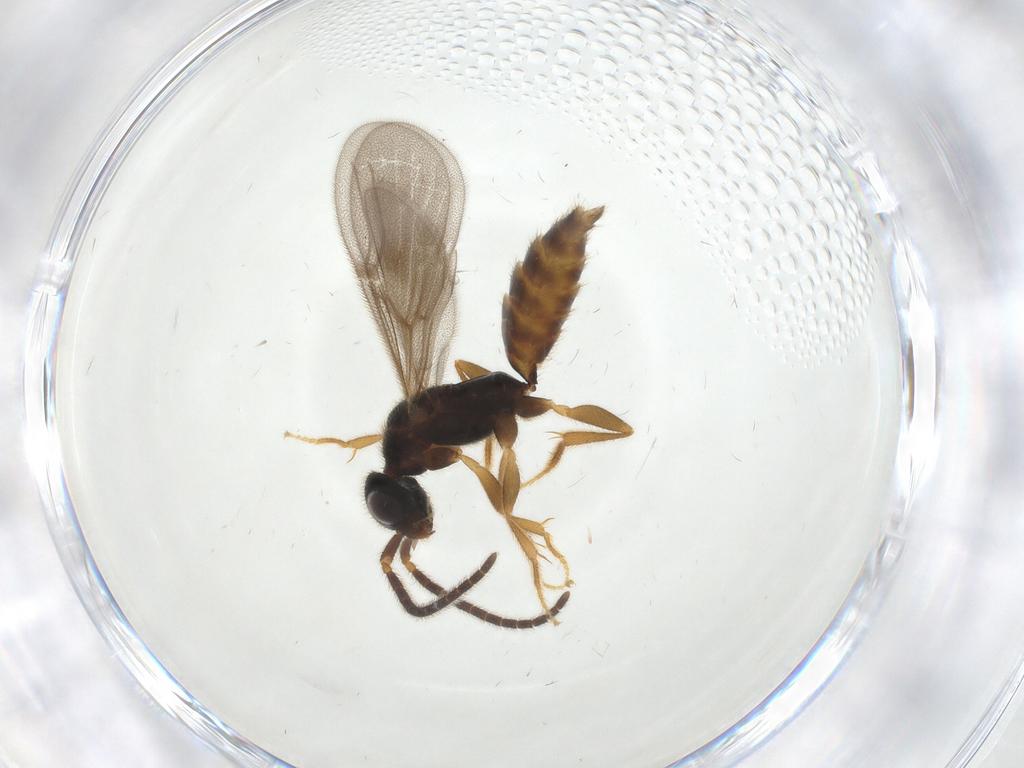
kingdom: Animalia
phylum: Arthropoda
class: Insecta
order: Hymenoptera
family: Bethylidae
